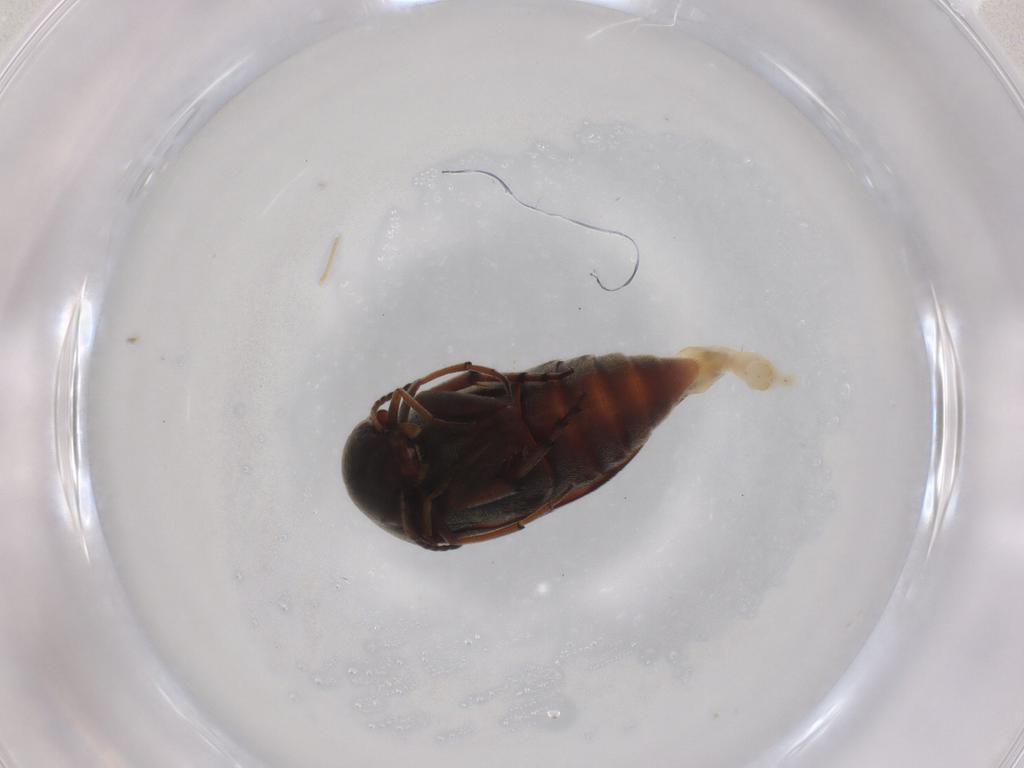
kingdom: Animalia
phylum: Arthropoda
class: Insecta
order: Coleoptera
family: Mordellidae
